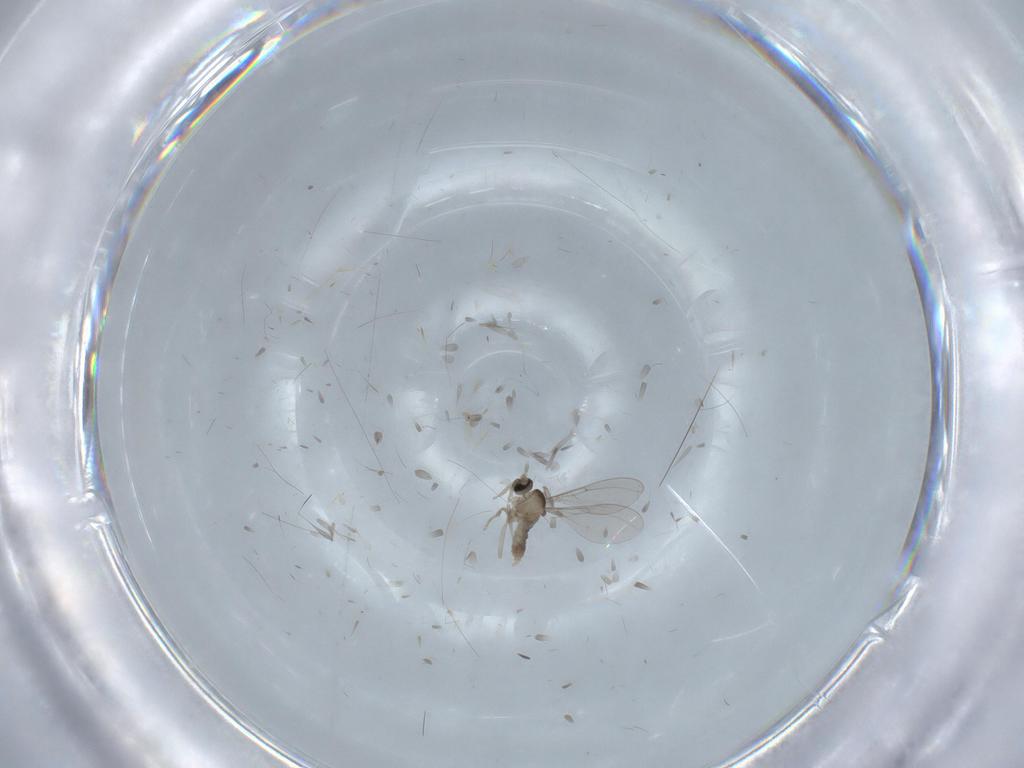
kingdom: Animalia
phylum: Arthropoda
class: Insecta
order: Diptera
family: Sciaridae
